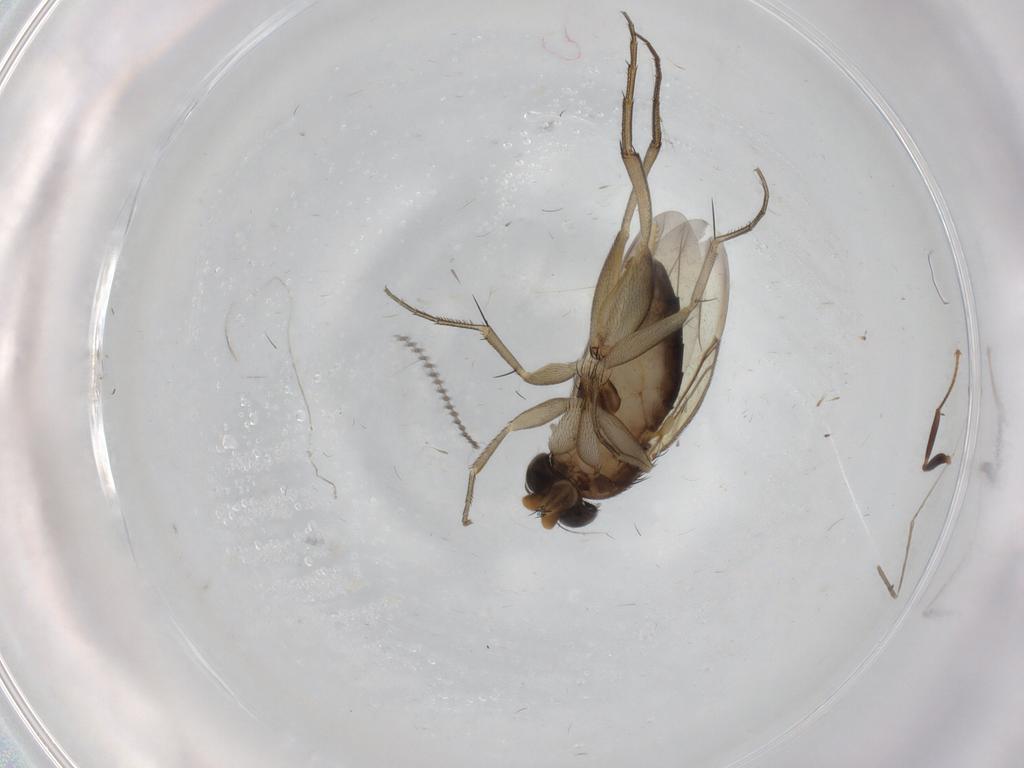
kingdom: Animalia
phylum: Arthropoda
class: Insecta
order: Diptera
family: Phoridae
